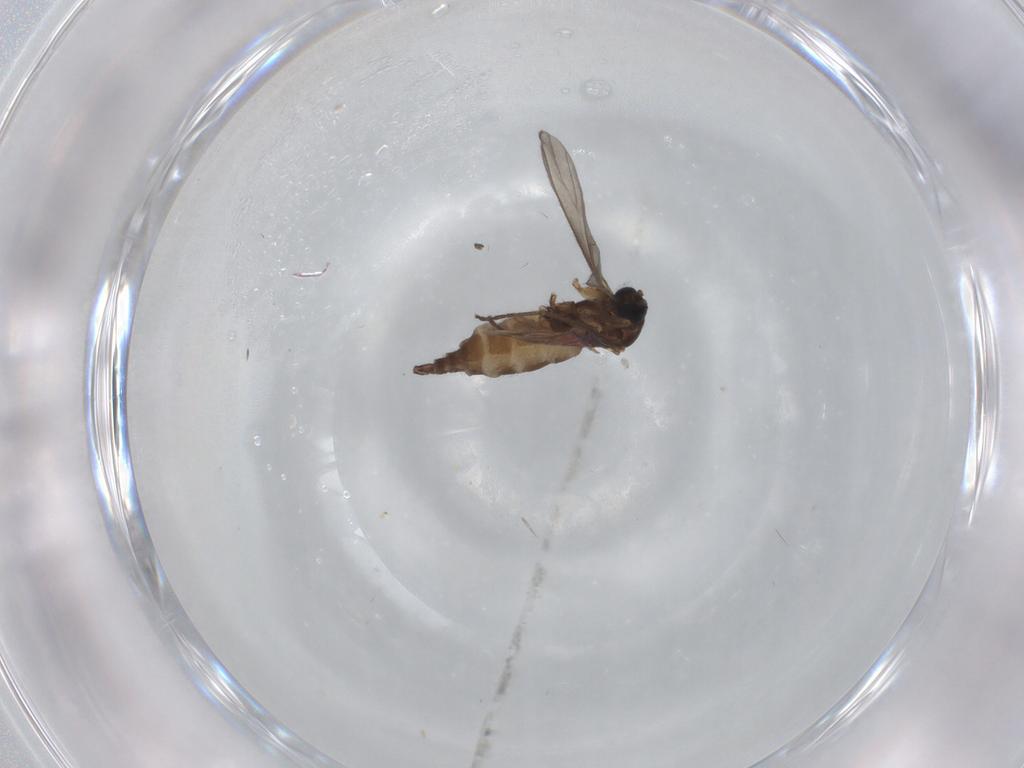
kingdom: Animalia
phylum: Arthropoda
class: Insecta
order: Diptera
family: Sciaridae
